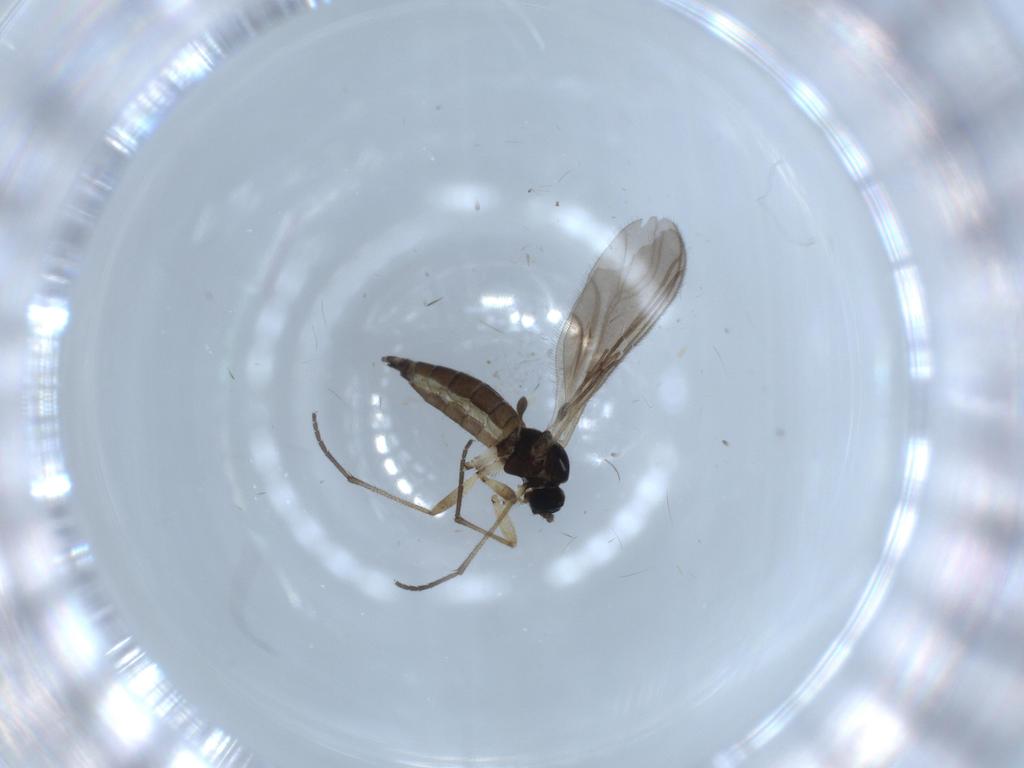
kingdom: Animalia
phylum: Arthropoda
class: Insecta
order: Diptera
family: Sciaridae
